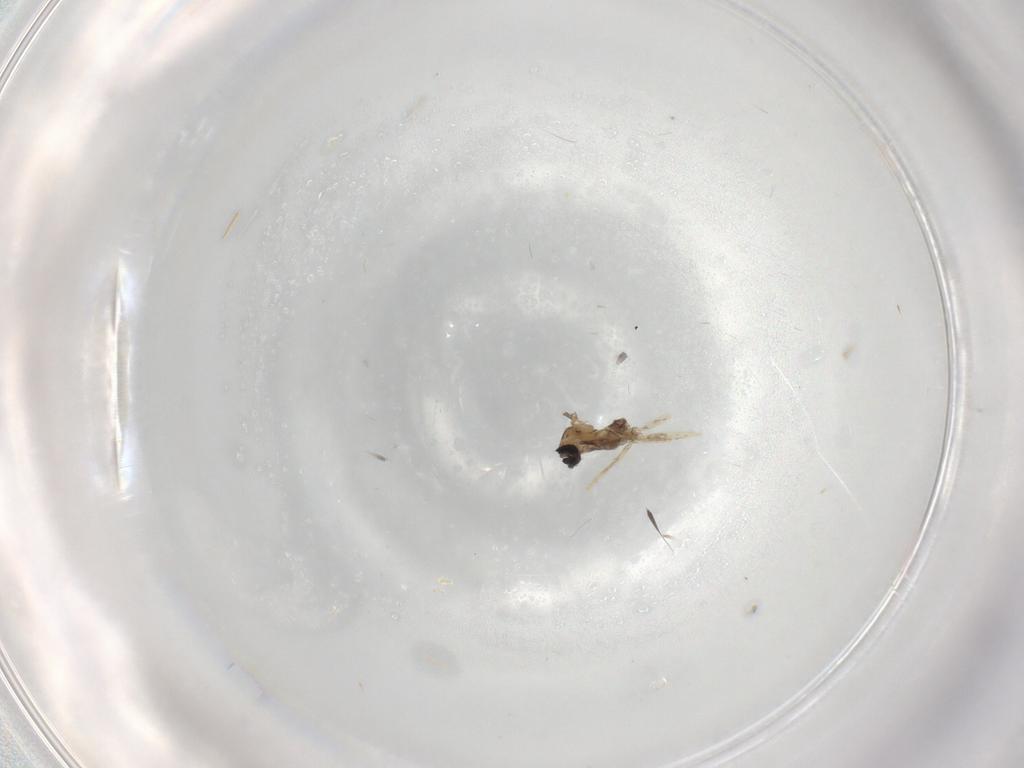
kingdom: Animalia
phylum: Arthropoda
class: Insecta
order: Diptera
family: Cecidomyiidae
